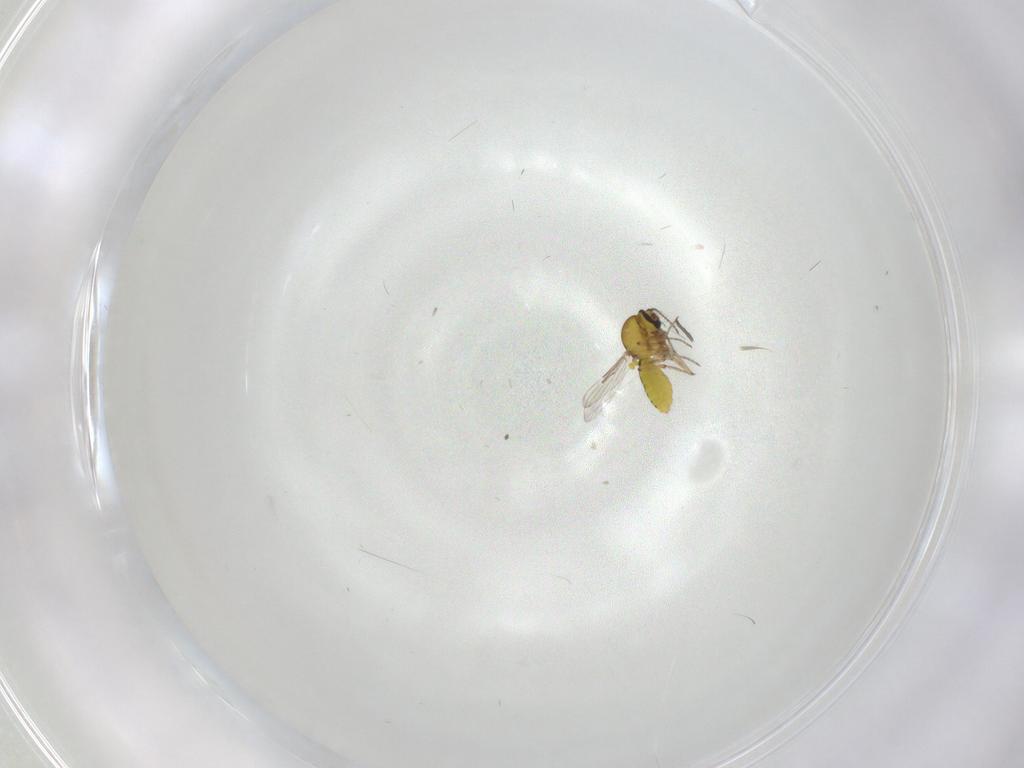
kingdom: Animalia
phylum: Arthropoda
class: Insecta
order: Diptera
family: Ceratopogonidae
